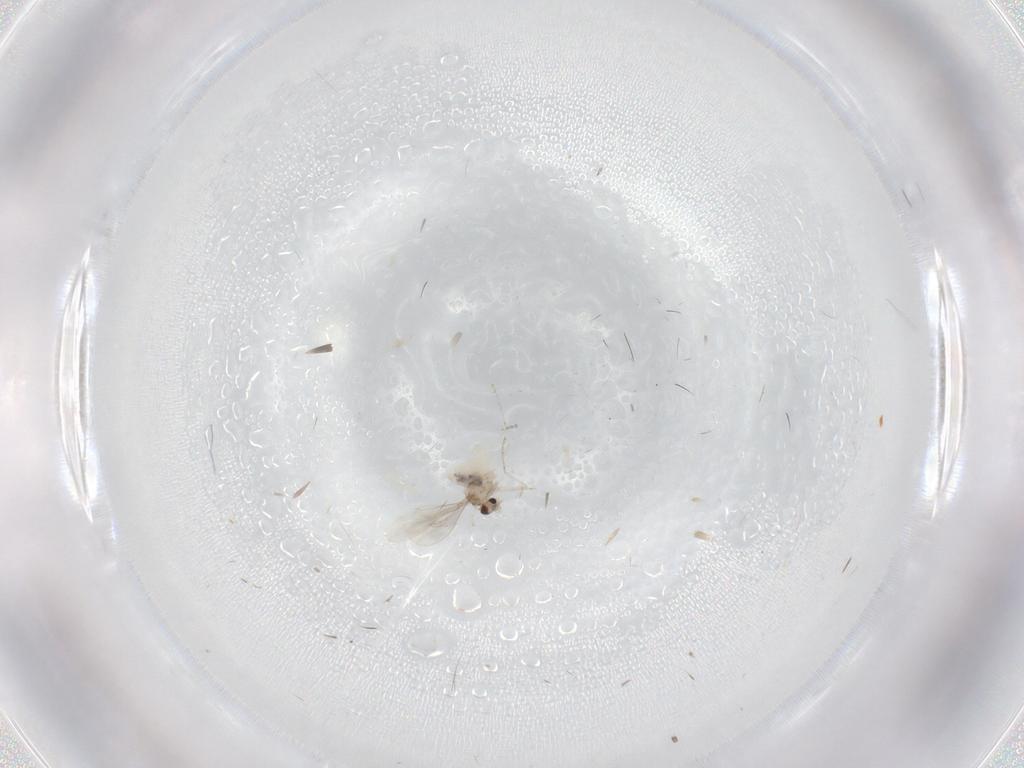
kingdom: Animalia
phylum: Arthropoda
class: Insecta
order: Diptera
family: Cecidomyiidae
